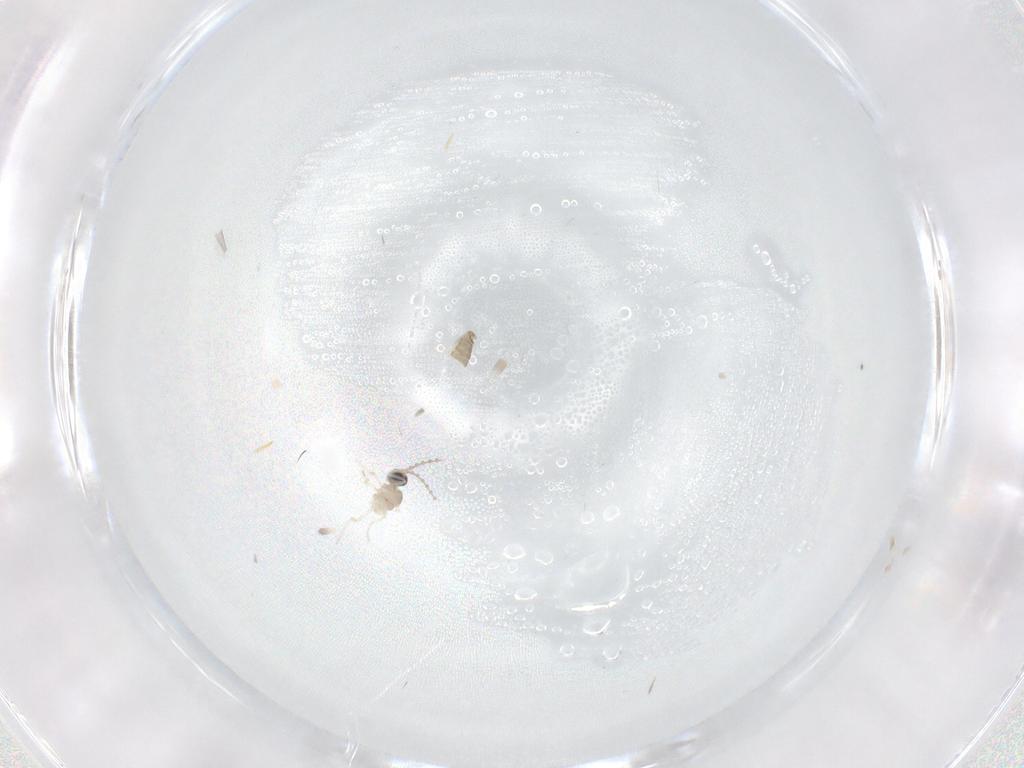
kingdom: Animalia
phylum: Arthropoda
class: Insecta
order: Diptera
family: Cecidomyiidae
